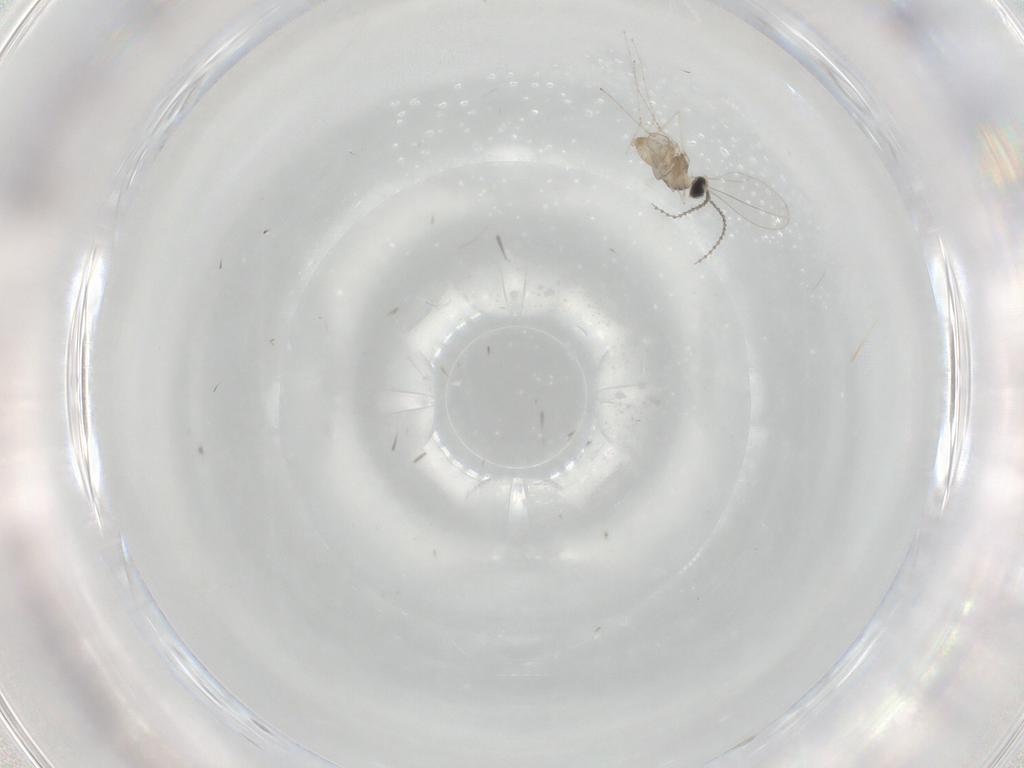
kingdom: Animalia
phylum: Arthropoda
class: Insecta
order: Diptera
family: Cecidomyiidae
